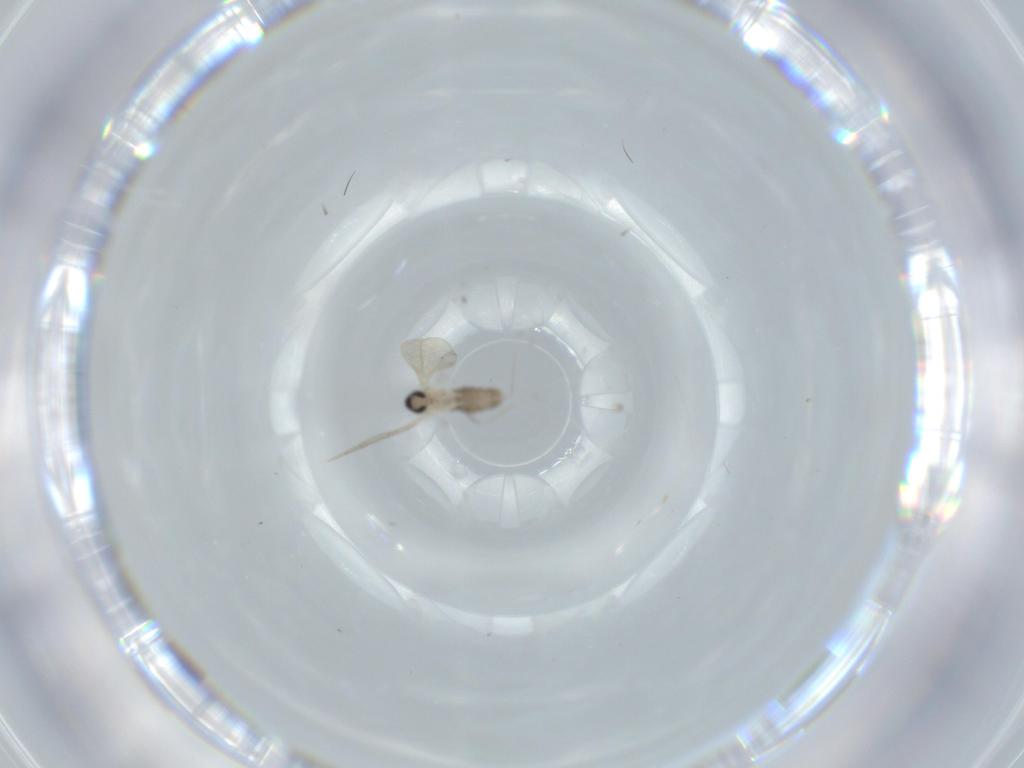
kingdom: Animalia
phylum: Arthropoda
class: Insecta
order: Diptera
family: Cecidomyiidae
